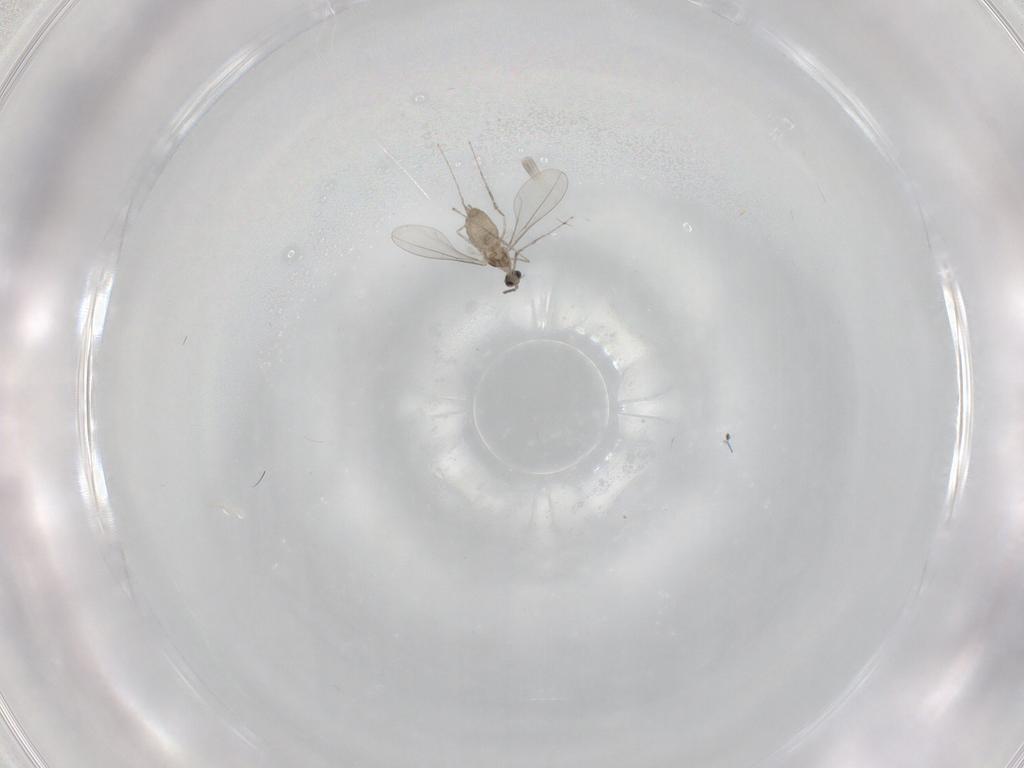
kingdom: Animalia
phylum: Arthropoda
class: Insecta
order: Diptera
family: Cecidomyiidae
